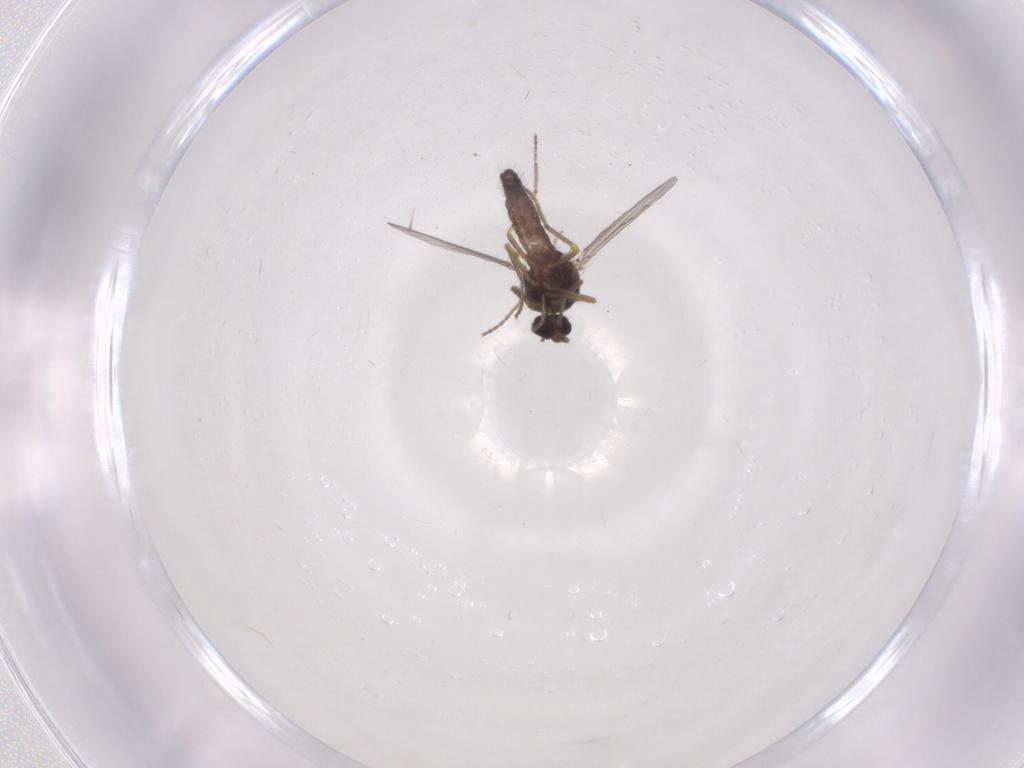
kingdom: Animalia
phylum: Arthropoda
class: Insecta
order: Diptera
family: Ceratopogonidae
